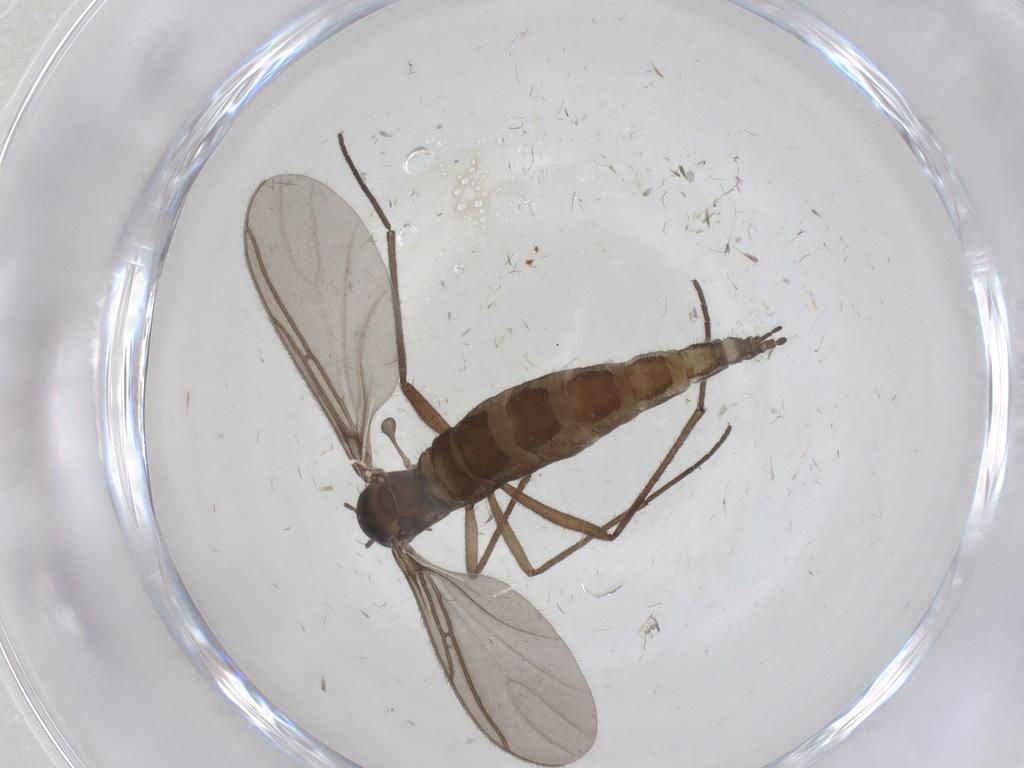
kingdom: Animalia
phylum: Arthropoda
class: Insecta
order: Diptera
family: Sciaridae
